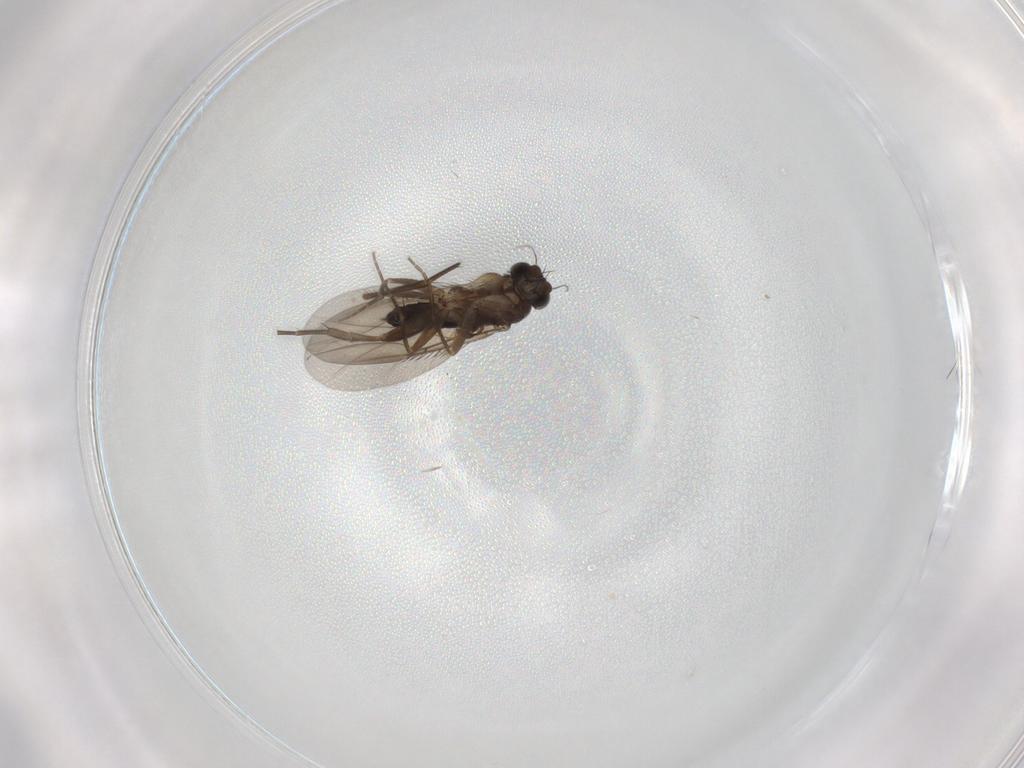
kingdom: Animalia
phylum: Arthropoda
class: Insecta
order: Diptera
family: Phoridae
